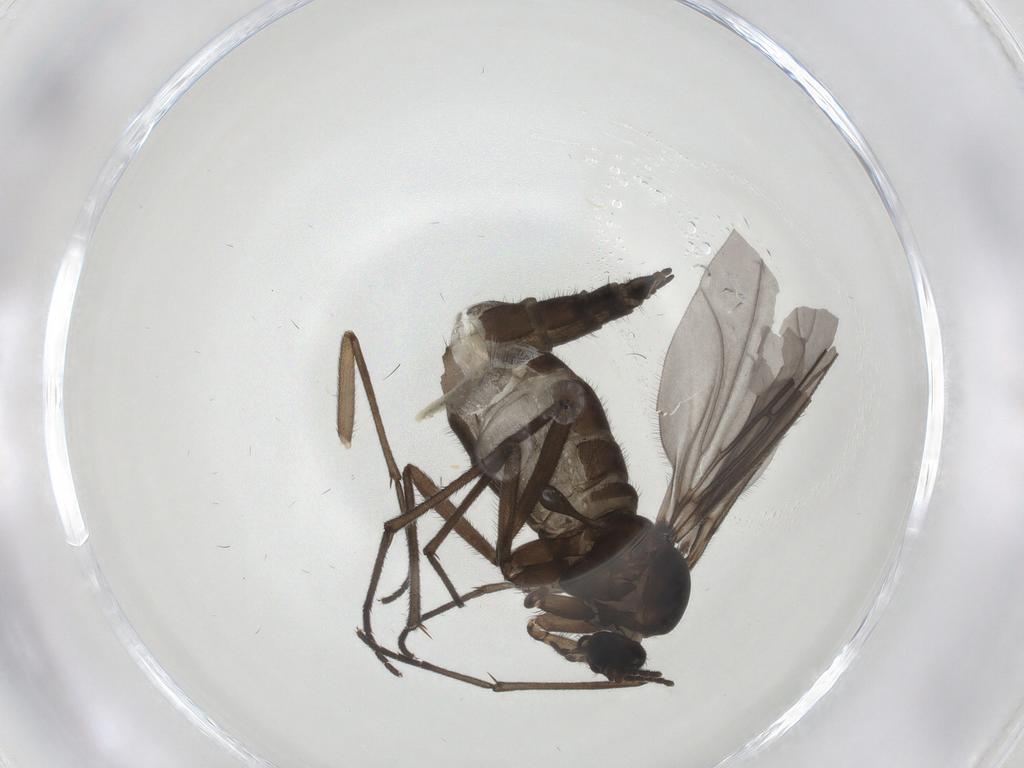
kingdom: Animalia
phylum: Arthropoda
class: Insecta
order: Diptera
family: Sciaridae
